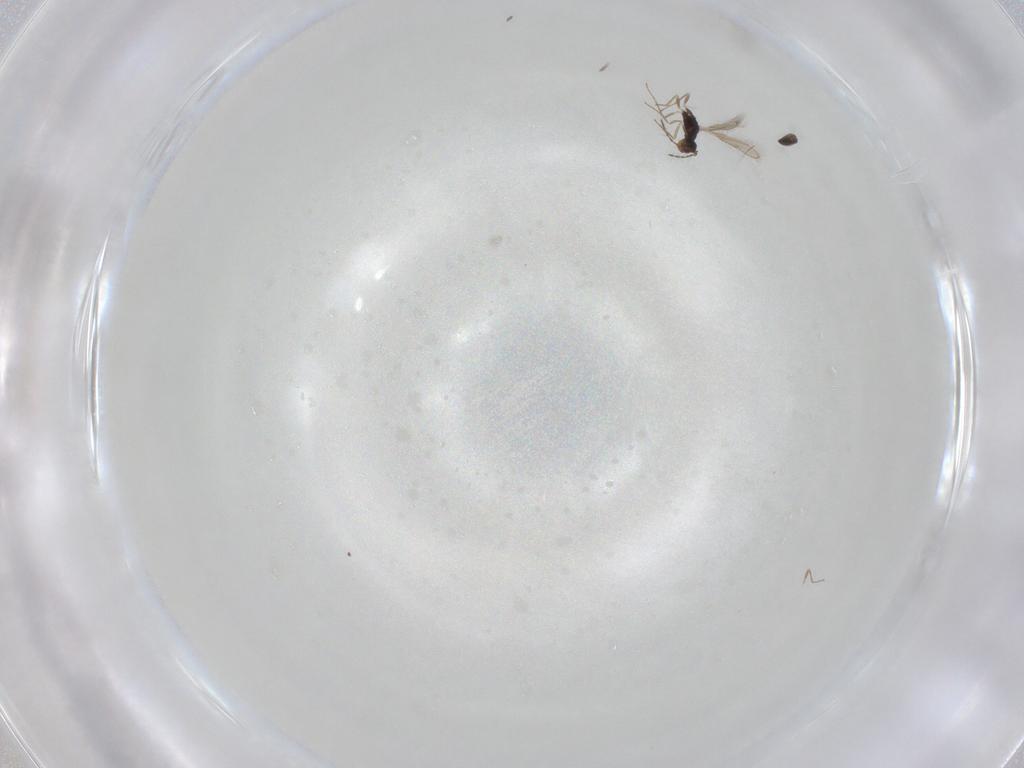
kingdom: Animalia
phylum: Arthropoda
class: Insecta
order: Hymenoptera
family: Pteromalidae
